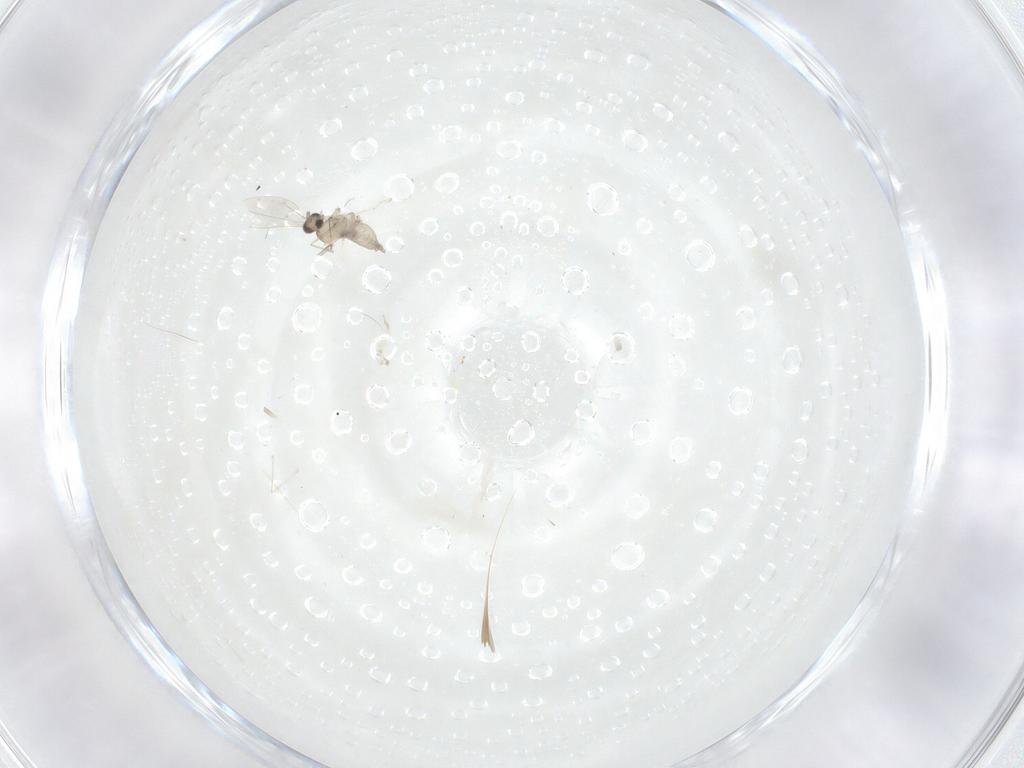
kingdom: Animalia
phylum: Arthropoda
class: Insecta
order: Diptera
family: Cecidomyiidae
